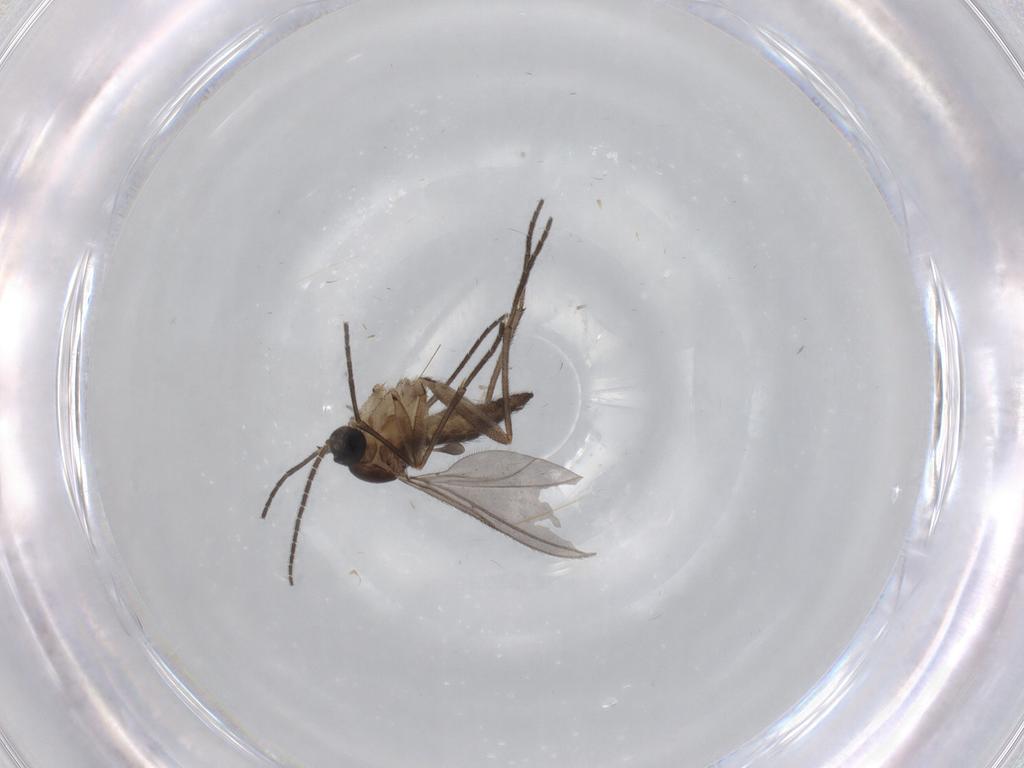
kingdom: Animalia
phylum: Arthropoda
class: Insecta
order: Diptera
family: Sciaridae
